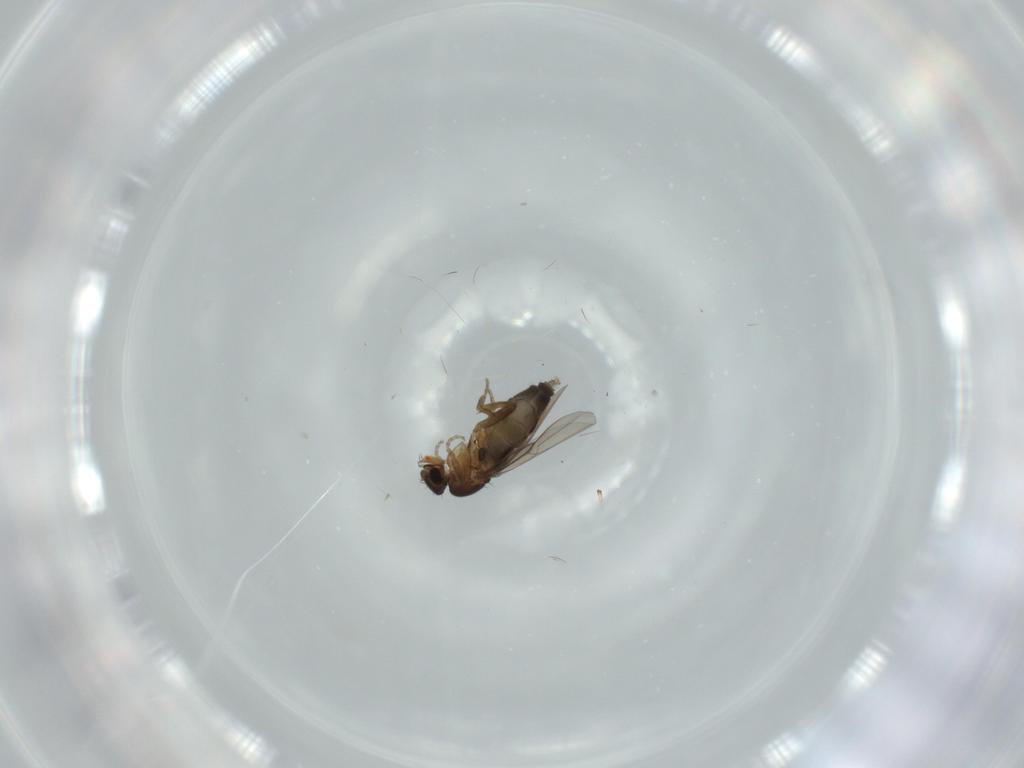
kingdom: Animalia
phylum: Arthropoda
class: Insecta
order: Diptera
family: Phoridae
